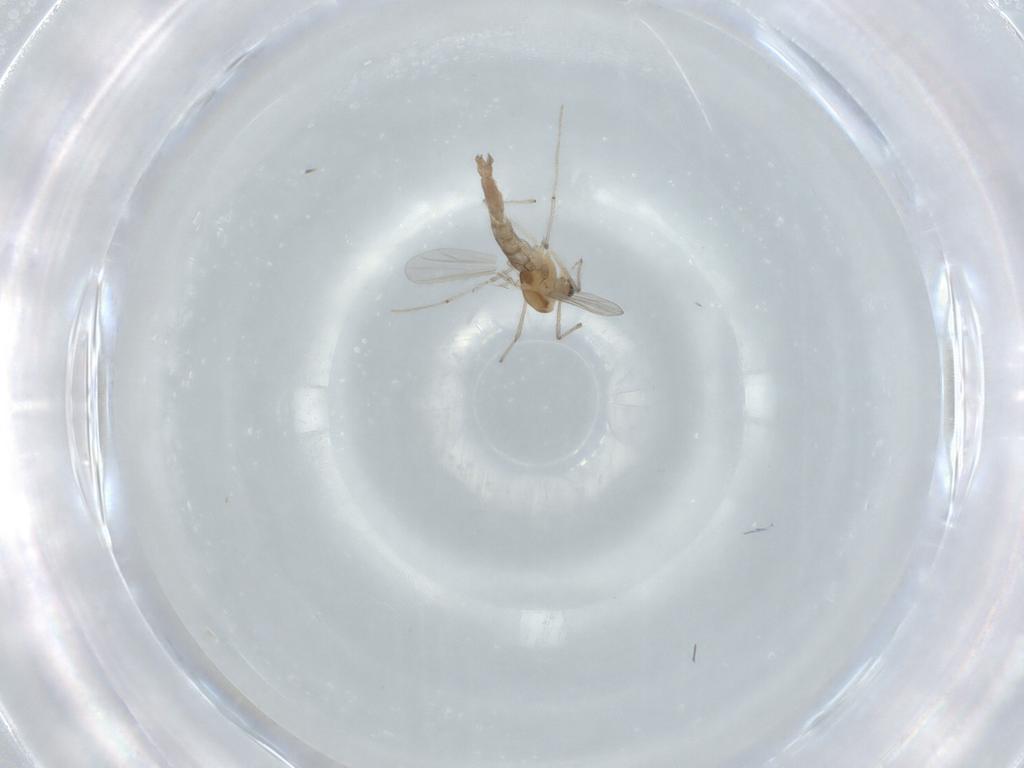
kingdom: Animalia
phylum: Arthropoda
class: Insecta
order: Diptera
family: Chironomidae
